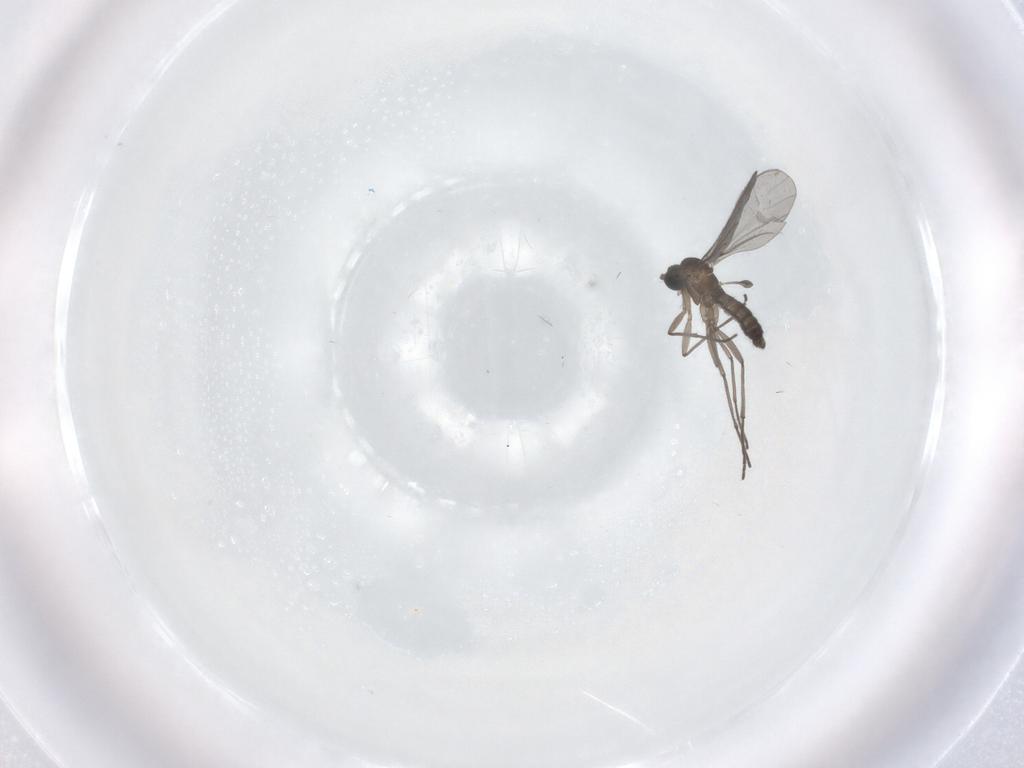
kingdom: Animalia
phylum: Arthropoda
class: Insecta
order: Diptera
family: Sciaridae
